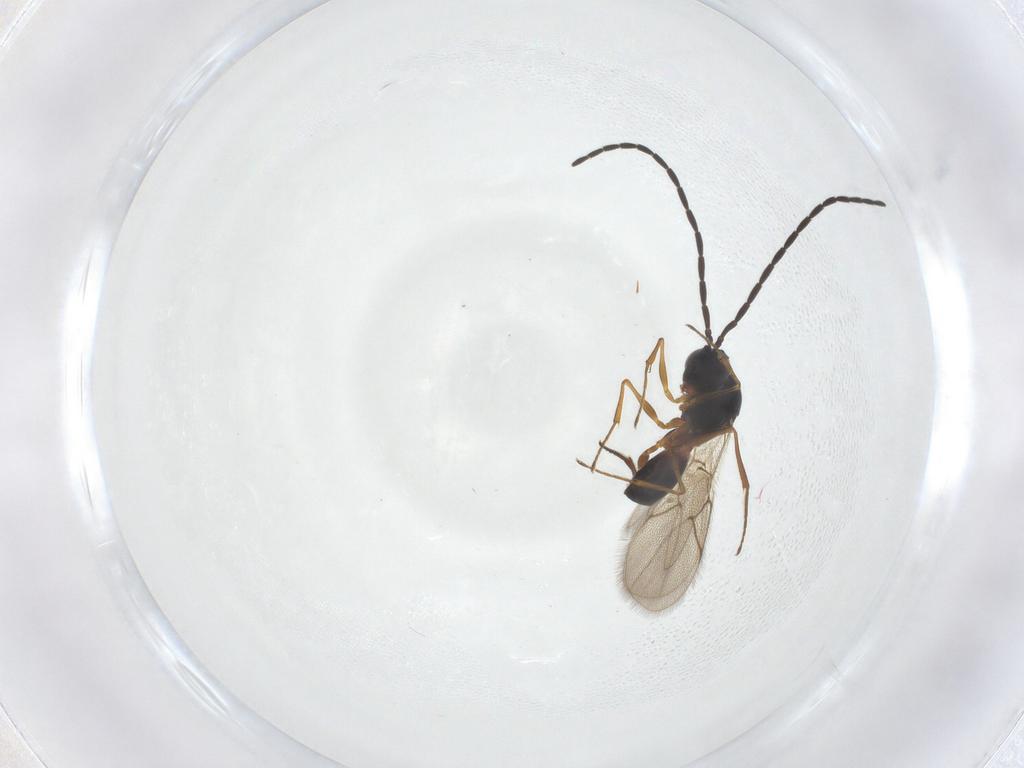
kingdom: Animalia
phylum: Arthropoda
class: Insecta
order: Hymenoptera
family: Figitidae
